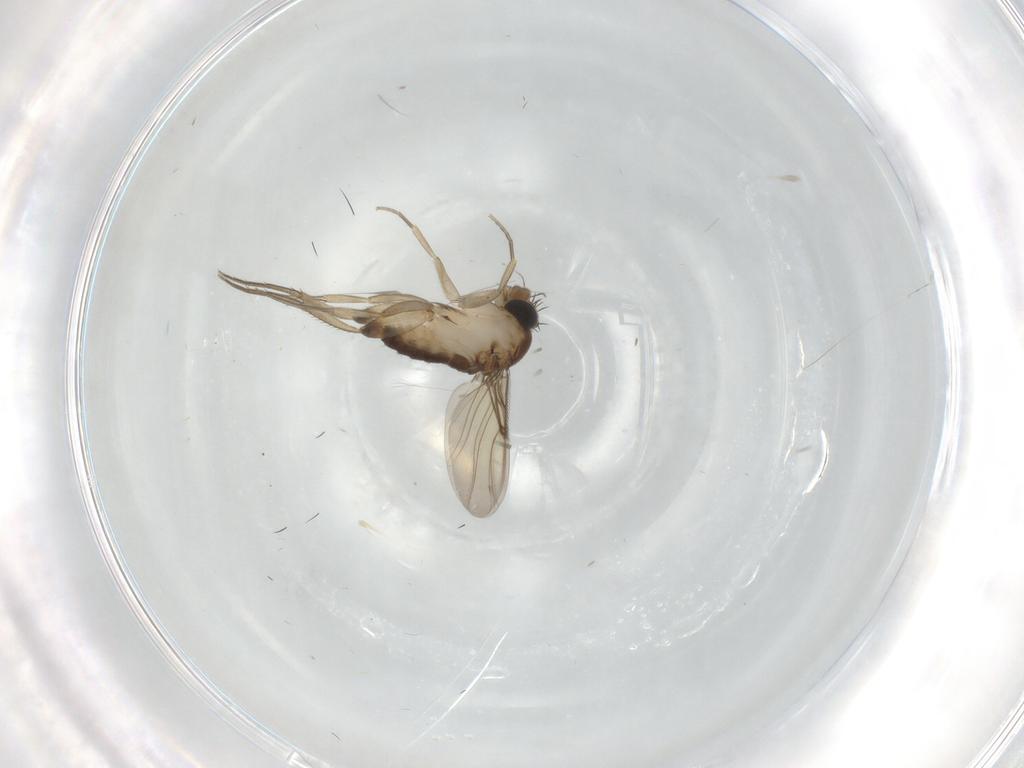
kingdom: Animalia
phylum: Arthropoda
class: Insecta
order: Diptera
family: Phoridae
